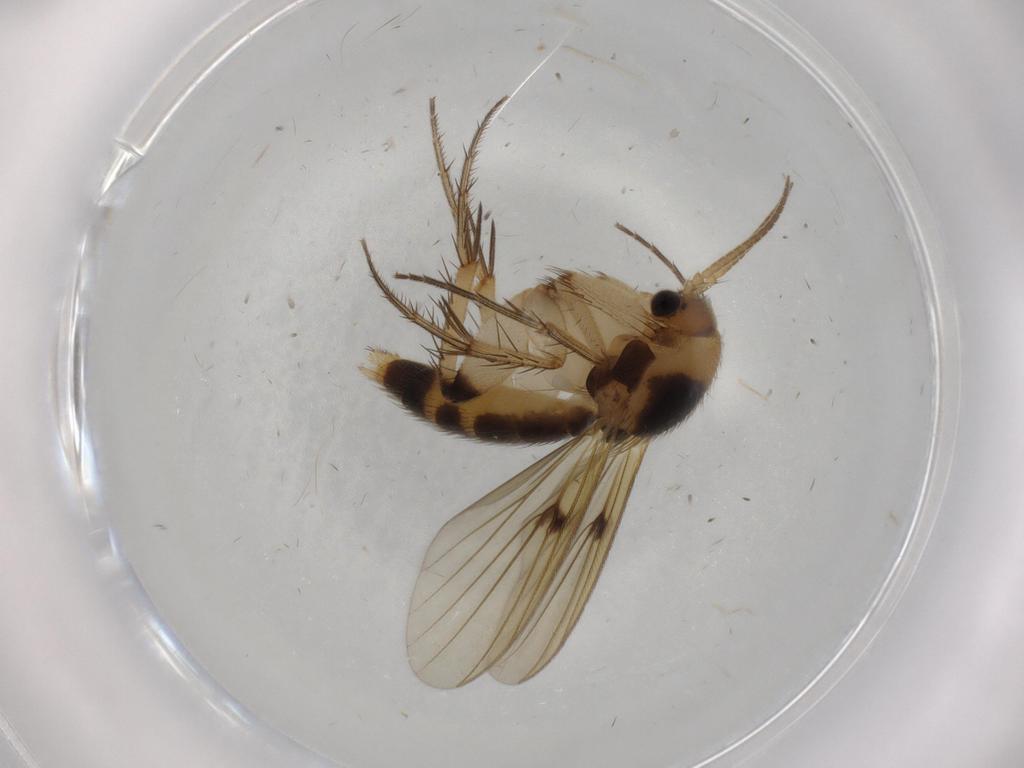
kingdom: Animalia
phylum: Arthropoda
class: Insecta
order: Diptera
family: Mycetophilidae
